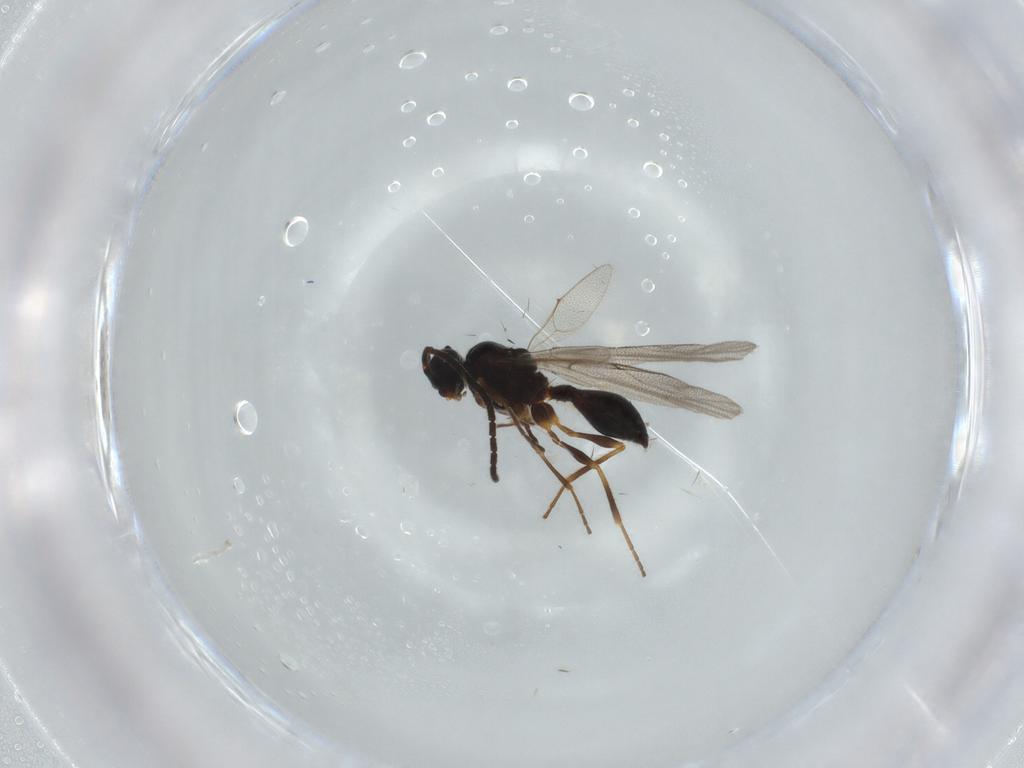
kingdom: Animalia
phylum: Arthropoda
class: Insecta
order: Hymenoptera
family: Diapriidae
